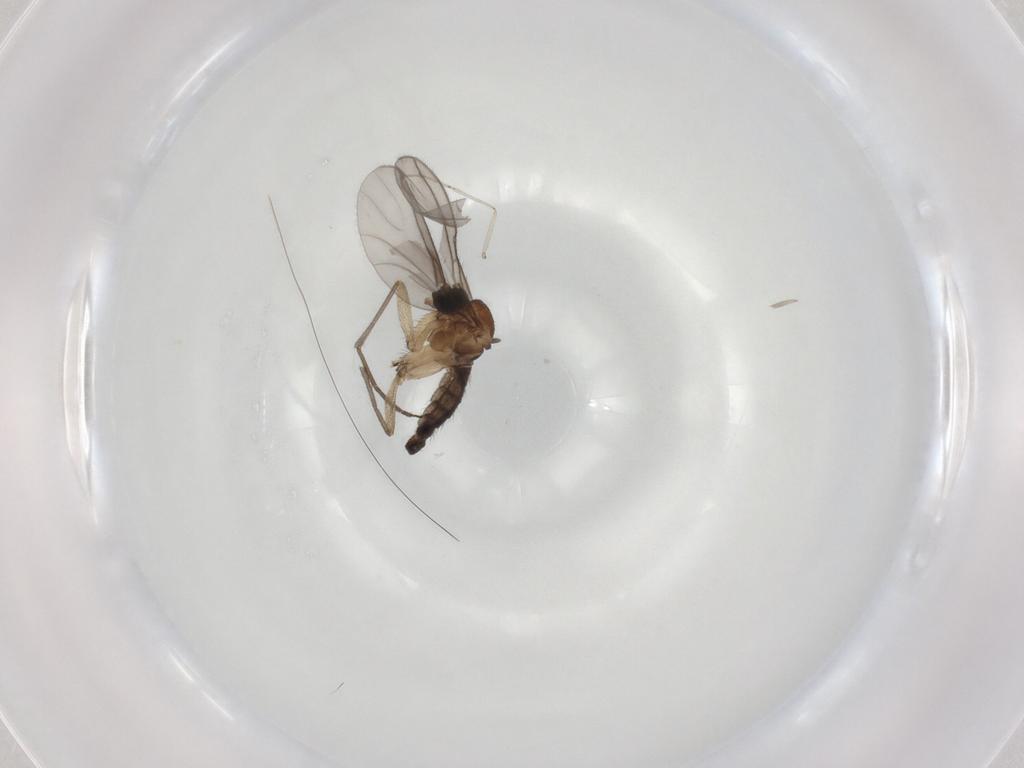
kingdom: Animalia
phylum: Arthropoda
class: Insecta
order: Diptera
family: Sciaridae
